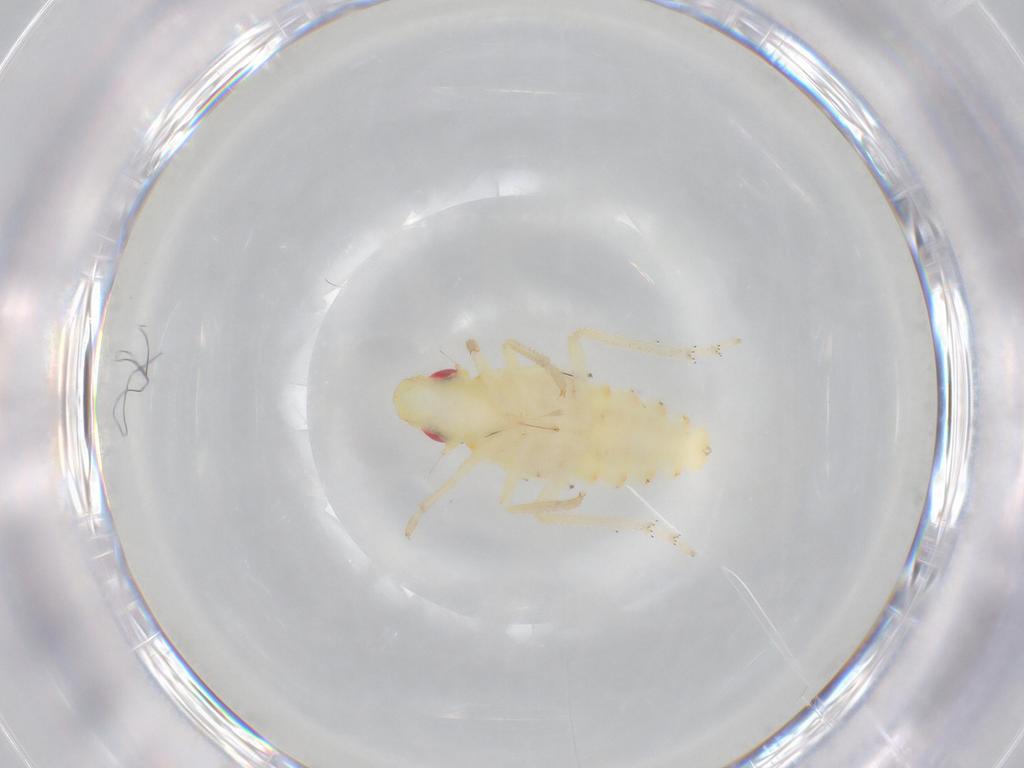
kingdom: Animalia
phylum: Arthropoda
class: Insecta
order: Hemiptera
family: Tropiduchidae
